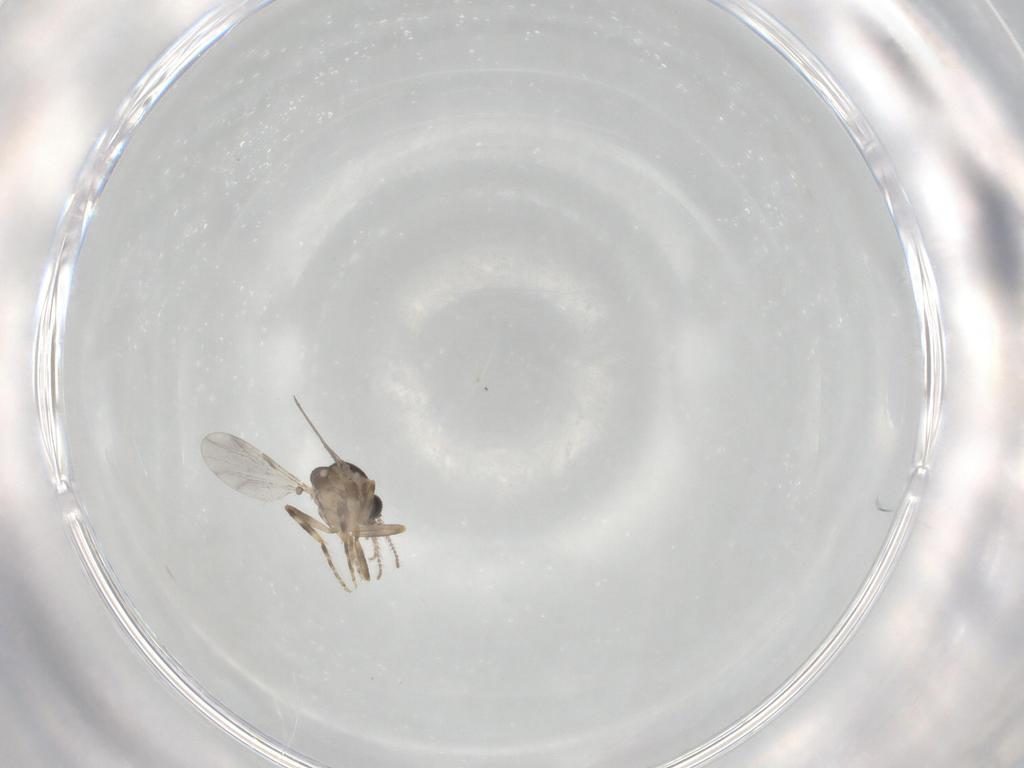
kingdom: Animalia
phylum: Arthropoda
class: Insecta
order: Diptera
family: Ceratopogonidae
